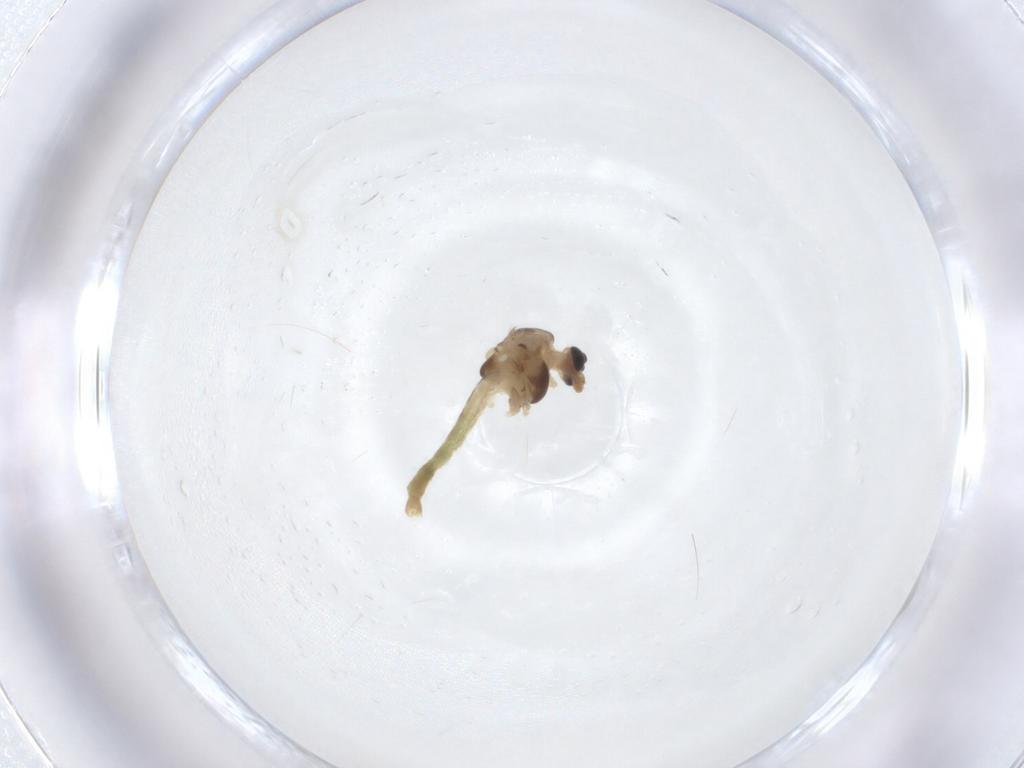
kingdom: Animalia
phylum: Arthropoda
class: Insecta
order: Diptera
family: Chironomidae
